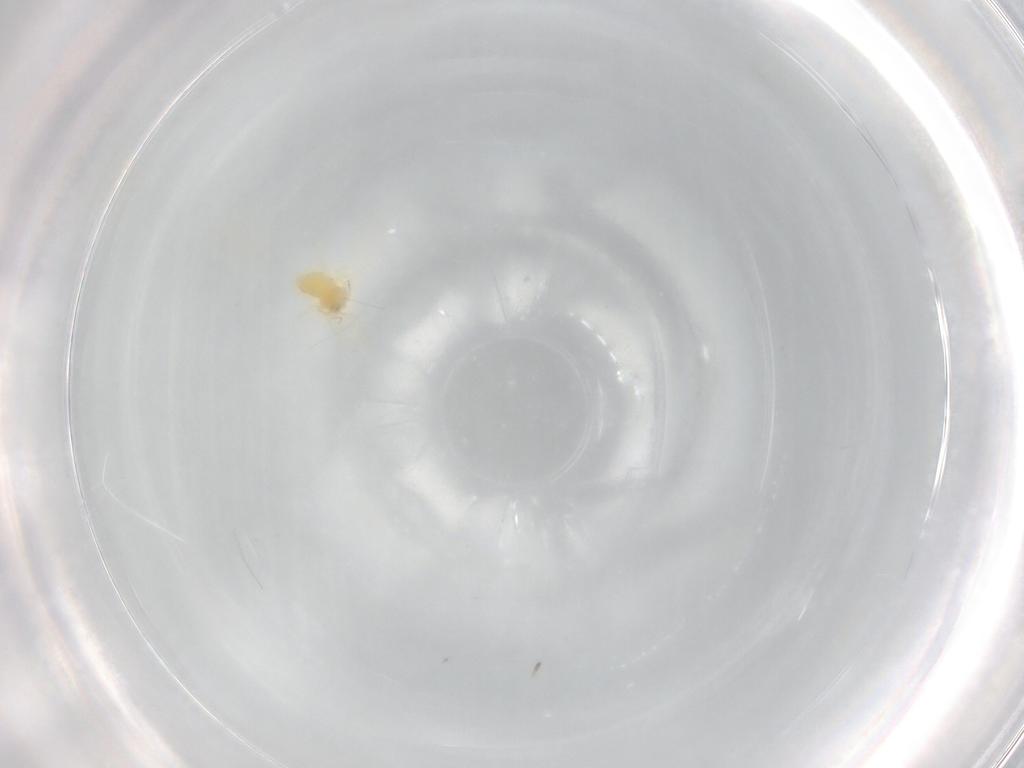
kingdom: Animalia
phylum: Arthropoda
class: Insecta
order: Hemiptera
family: Aleyrodidae
